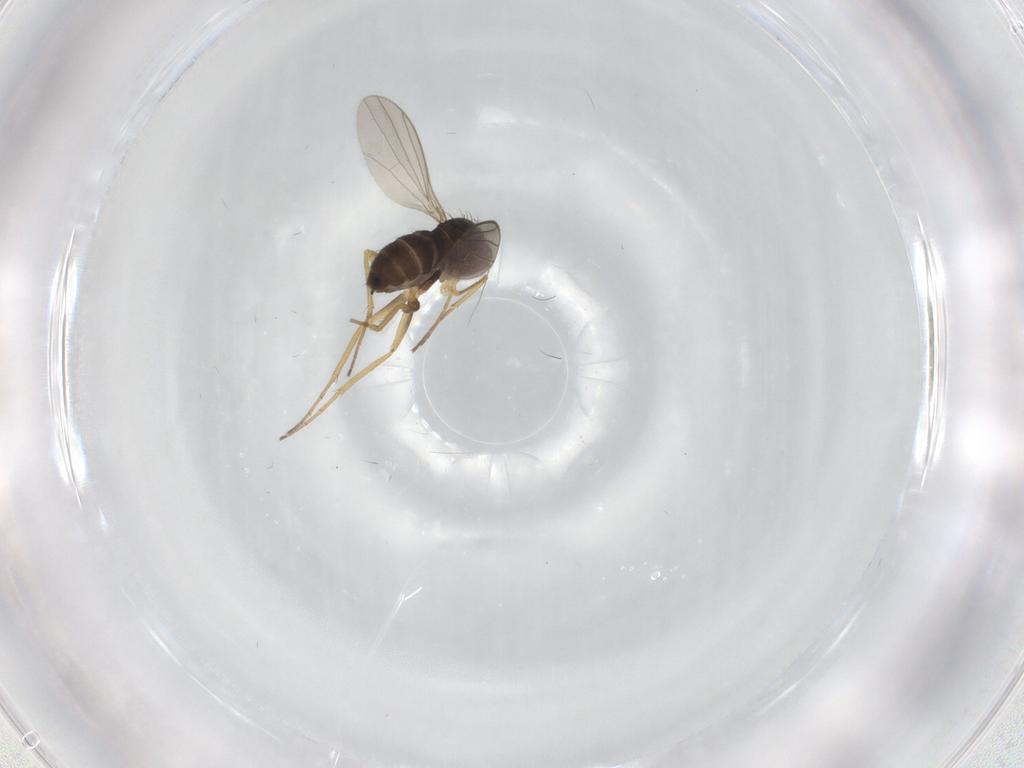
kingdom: Animalia
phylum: Arthropoda
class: Insecta
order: Diptera
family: Dolichopodidae
